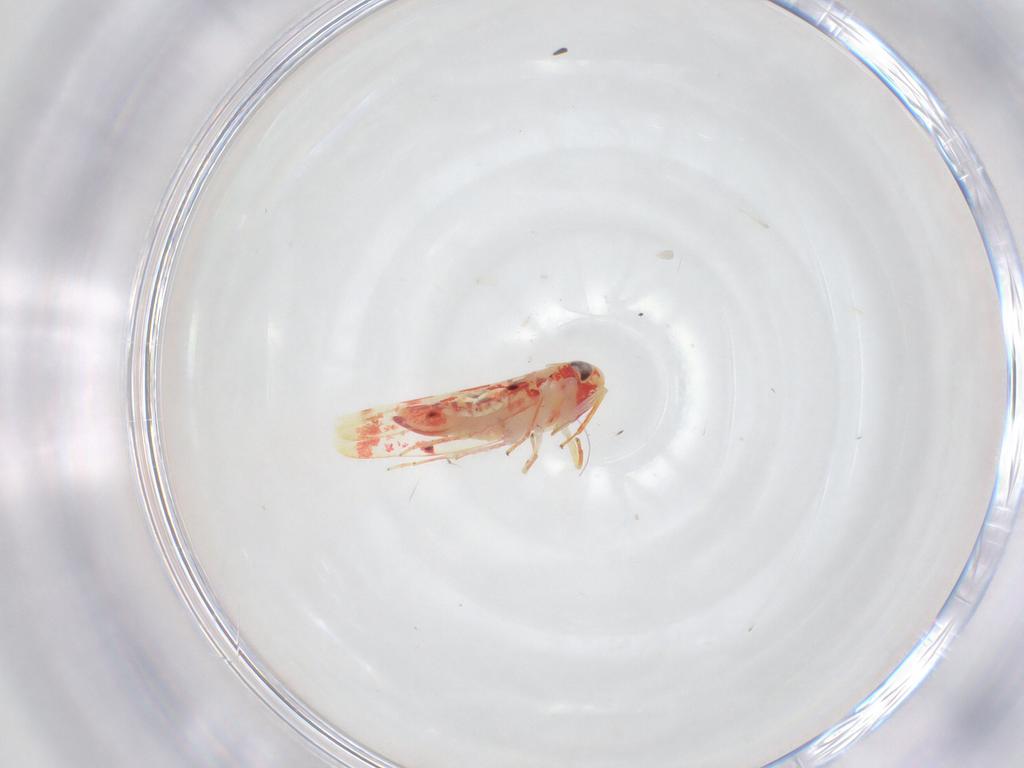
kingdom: Animalia
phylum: Arthropoda
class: Insecta
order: Hemiptera
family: Cicadellidae
